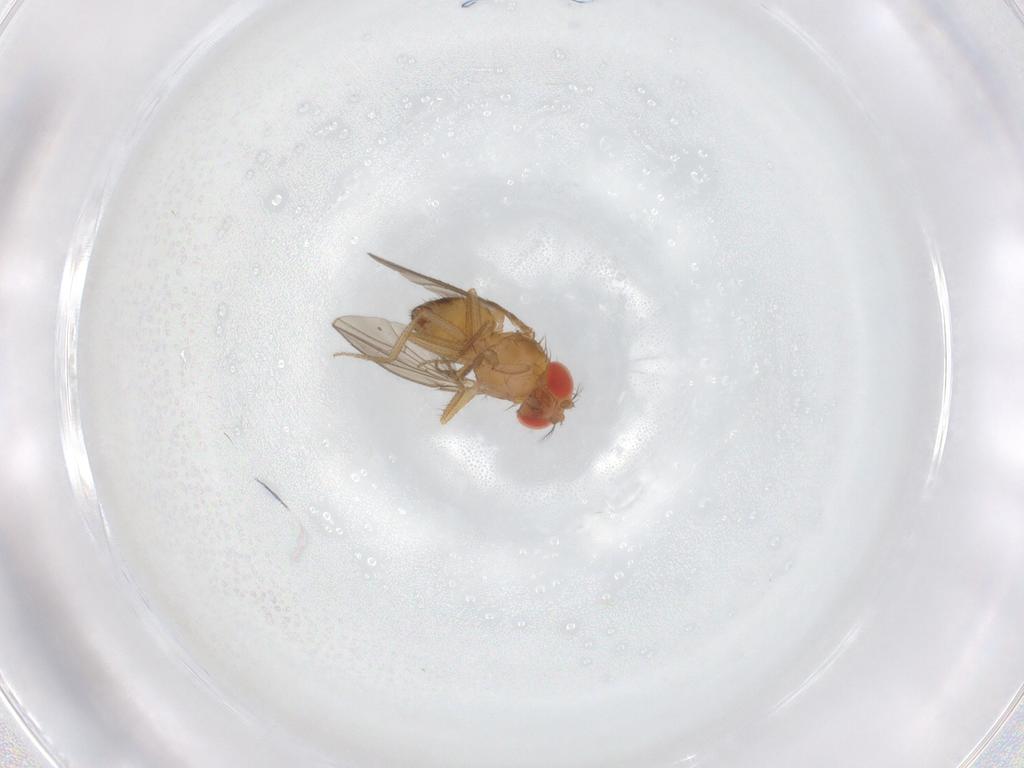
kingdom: Animalia
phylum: Arthropoda
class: Insecta
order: Diptera
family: Drosophilidae
